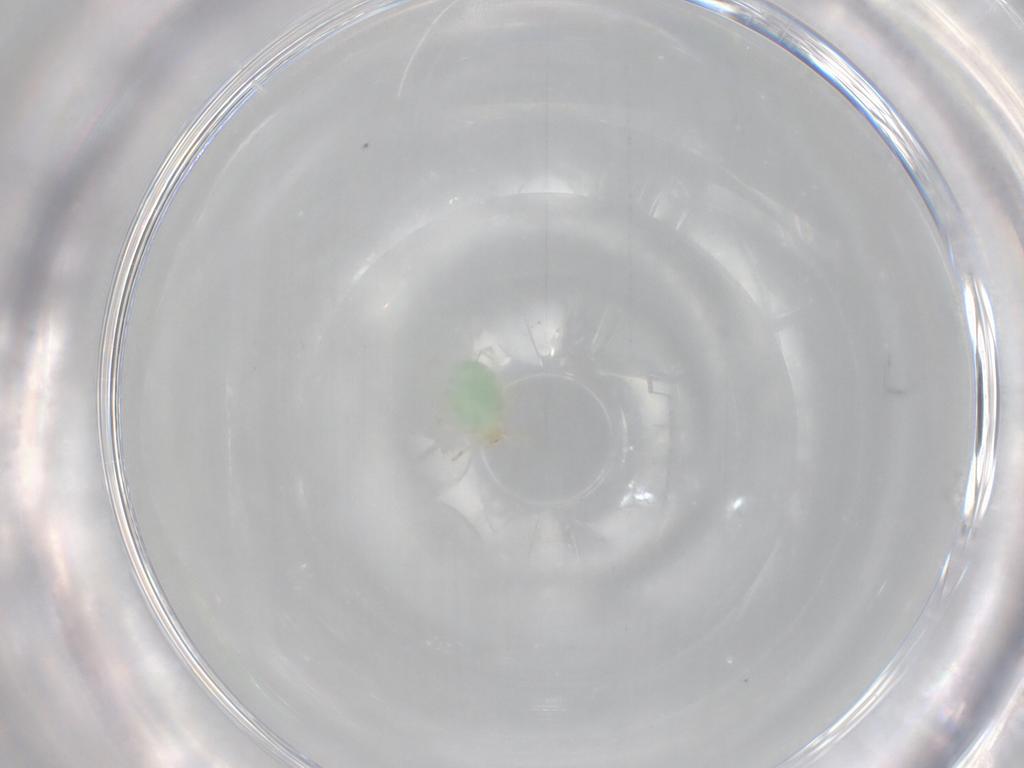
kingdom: Animalia
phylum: Arthropoda
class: Arachnida
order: Trombidiformes
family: Erythraeidae
